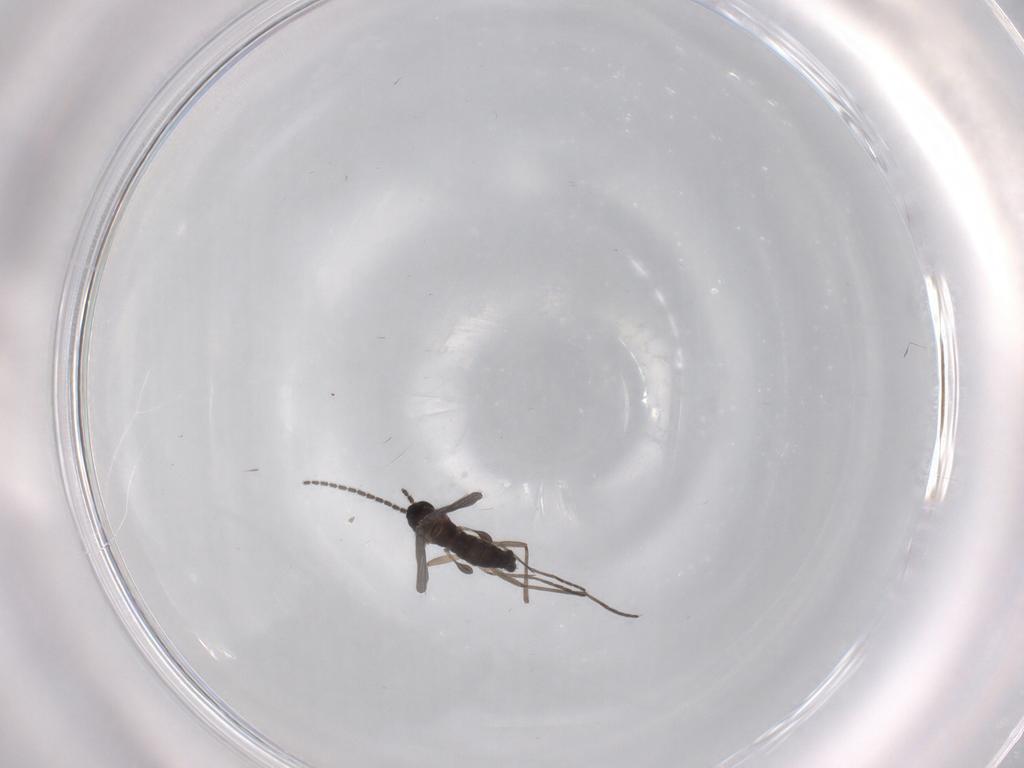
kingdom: Animalia
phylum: Arthropoda
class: Insecta
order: Diptera
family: Sciaridae
